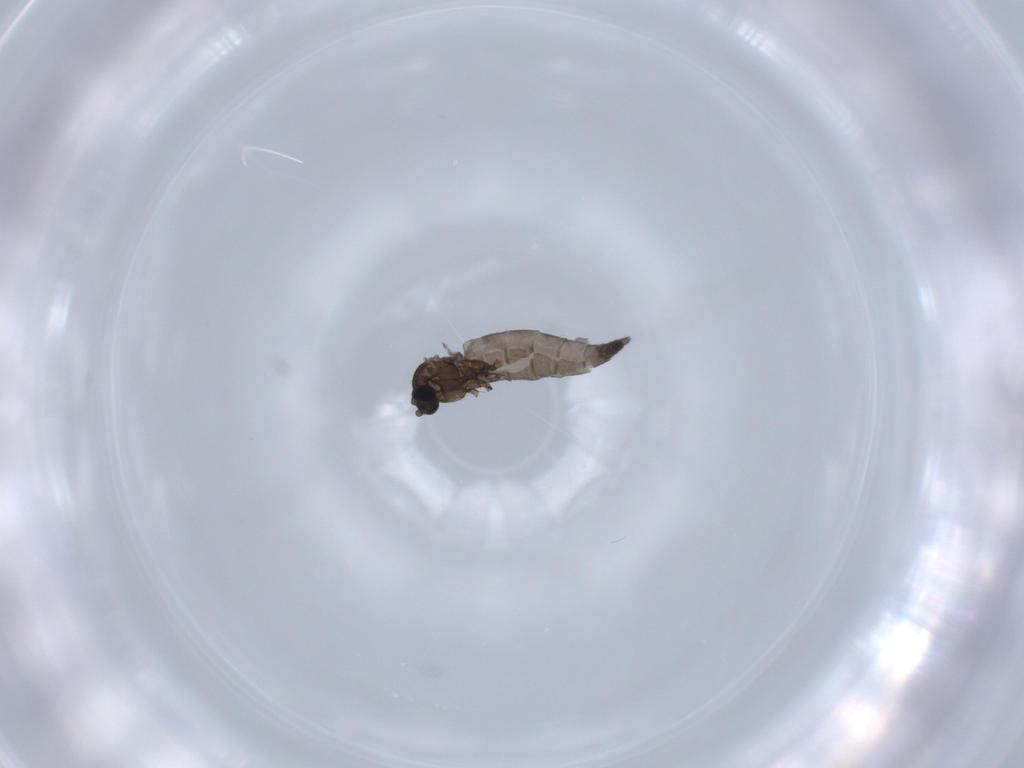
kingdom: Animalia
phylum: Arthropoda
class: Insecta
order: Diptera
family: Sciaridae
